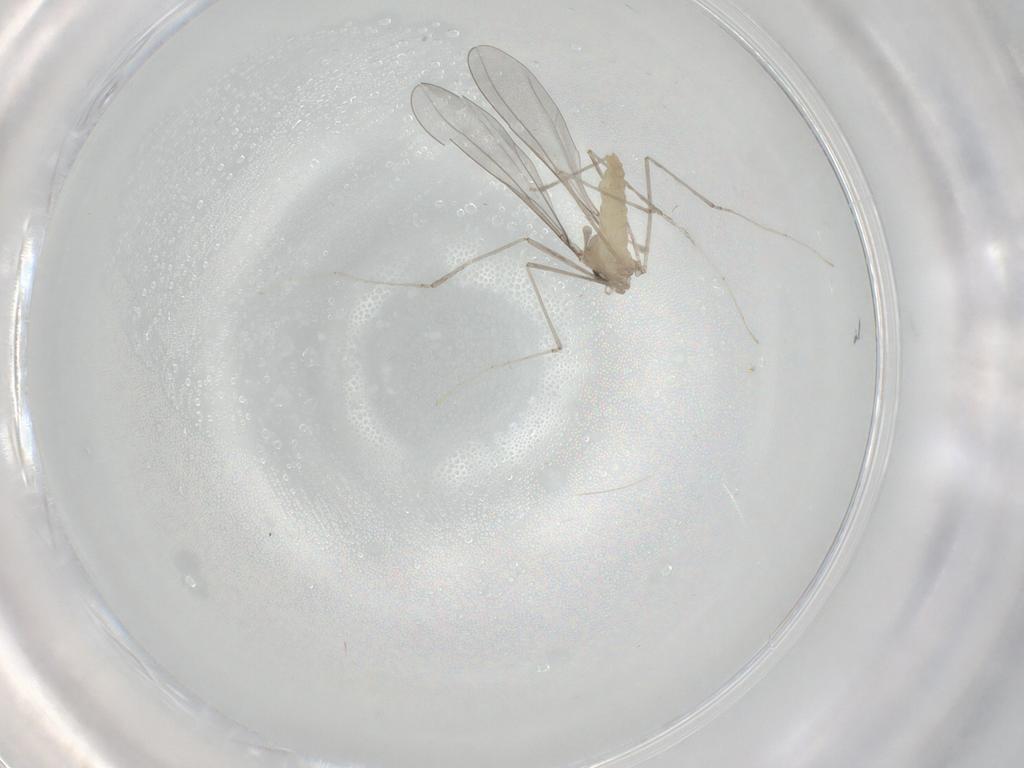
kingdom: Animalia
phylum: Arthropoda
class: Insecta
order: Diptera
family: Cecidomyiidae
